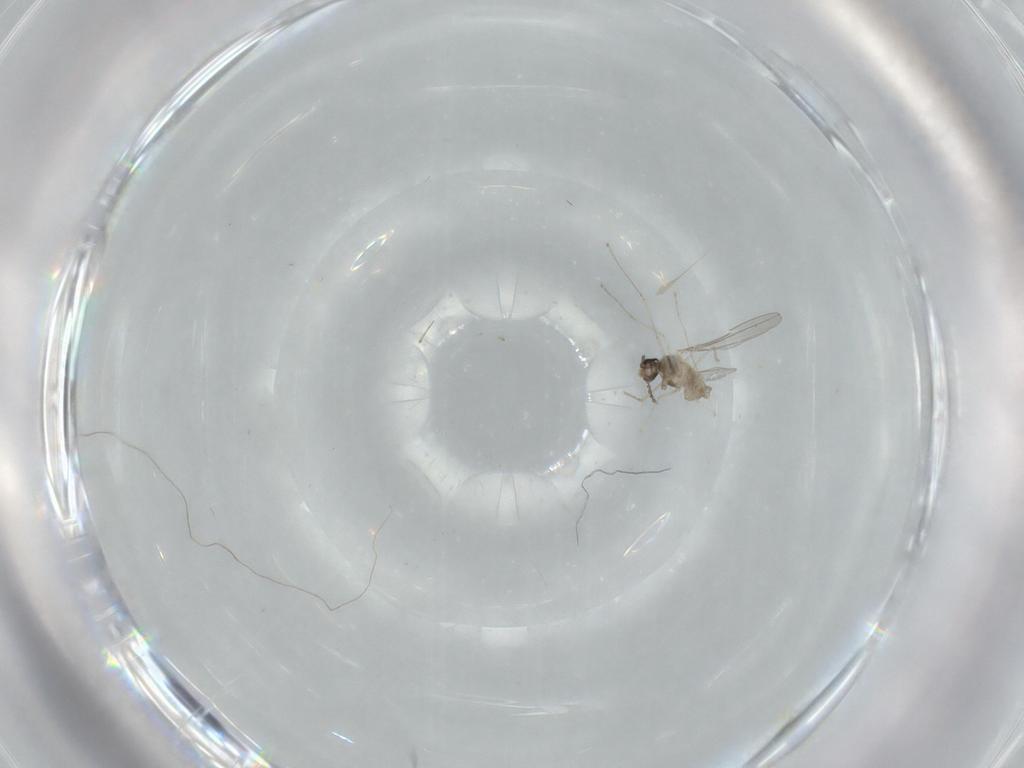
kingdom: Animalia
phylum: Arthropoda
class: Insecta
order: Diptera
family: Cecidomyiidae
